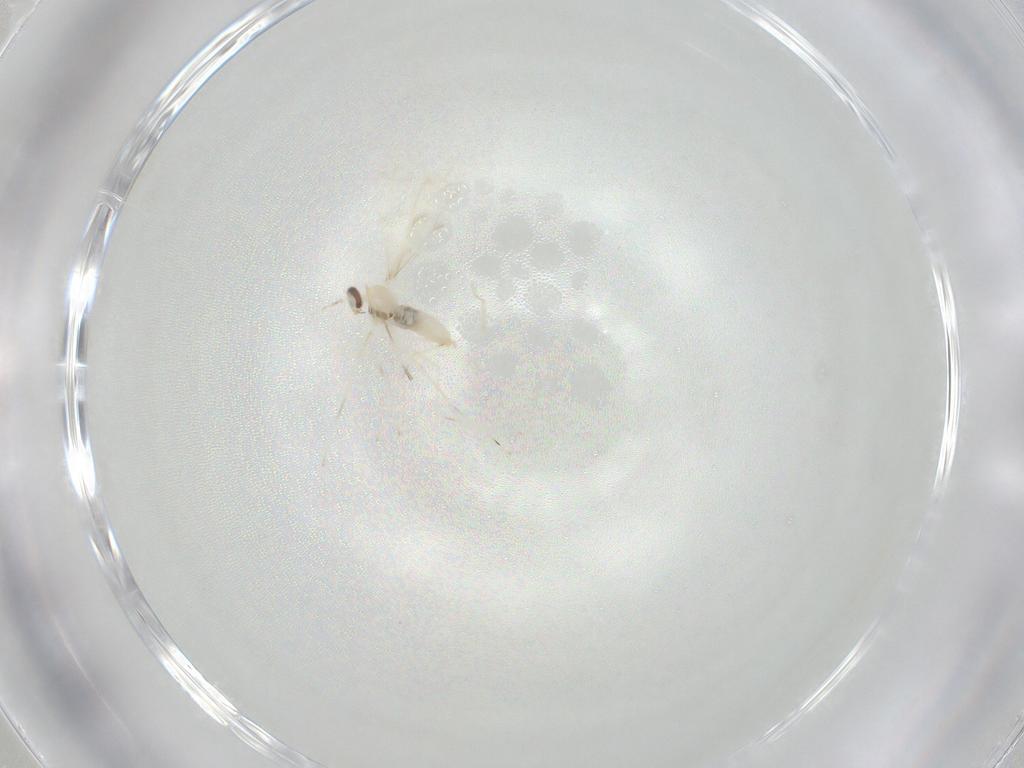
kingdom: Animalia
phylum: Arthropoda
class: Insecta
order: Diptera
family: Cecidomyiidae
